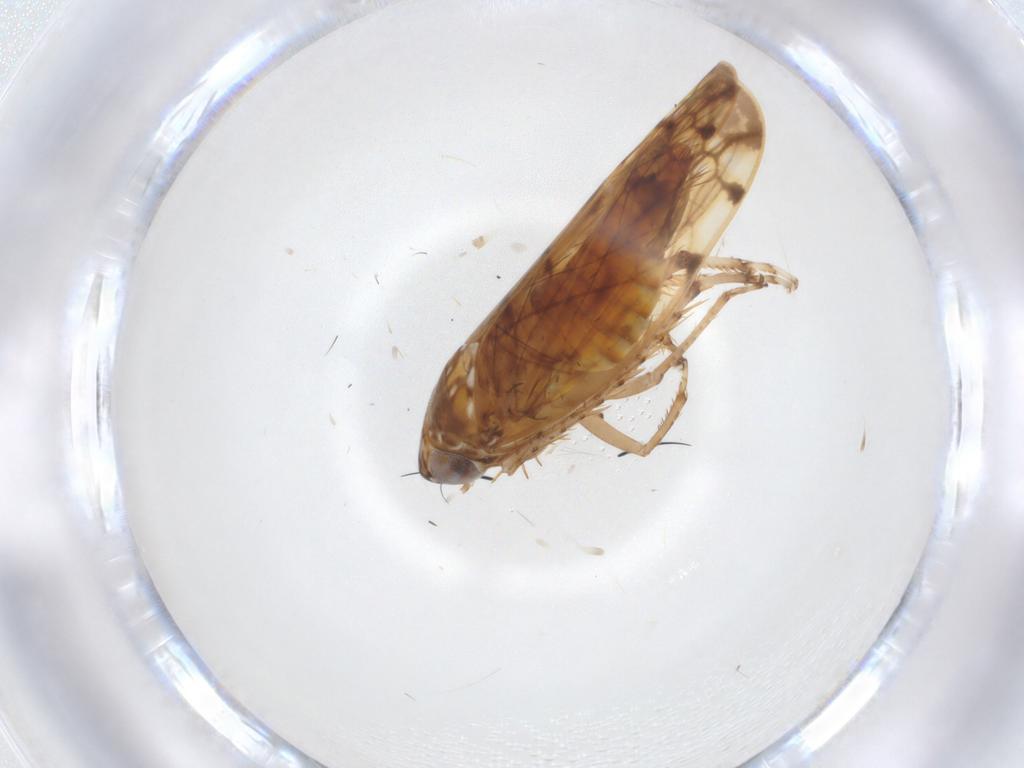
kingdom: Animalia
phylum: Arthropoda
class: Insecta
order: Hemiptera
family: Cicadellidae
